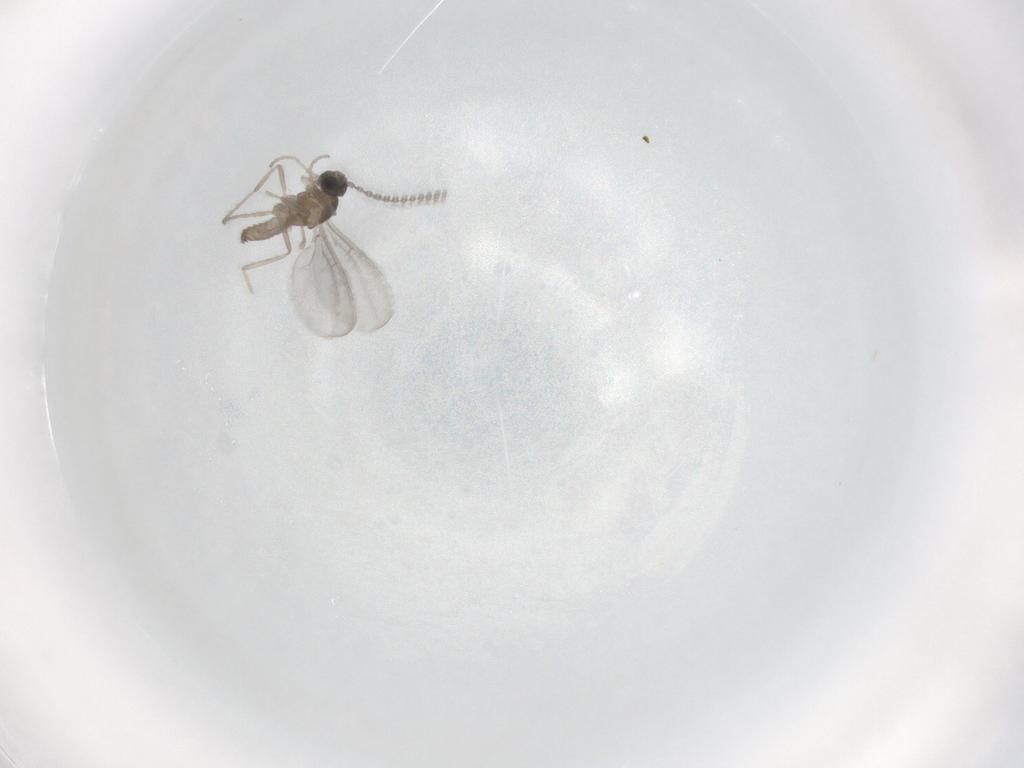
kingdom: Animalia
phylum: Arthropoda
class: Insecta
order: Diptera
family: Cecidomyiidae
